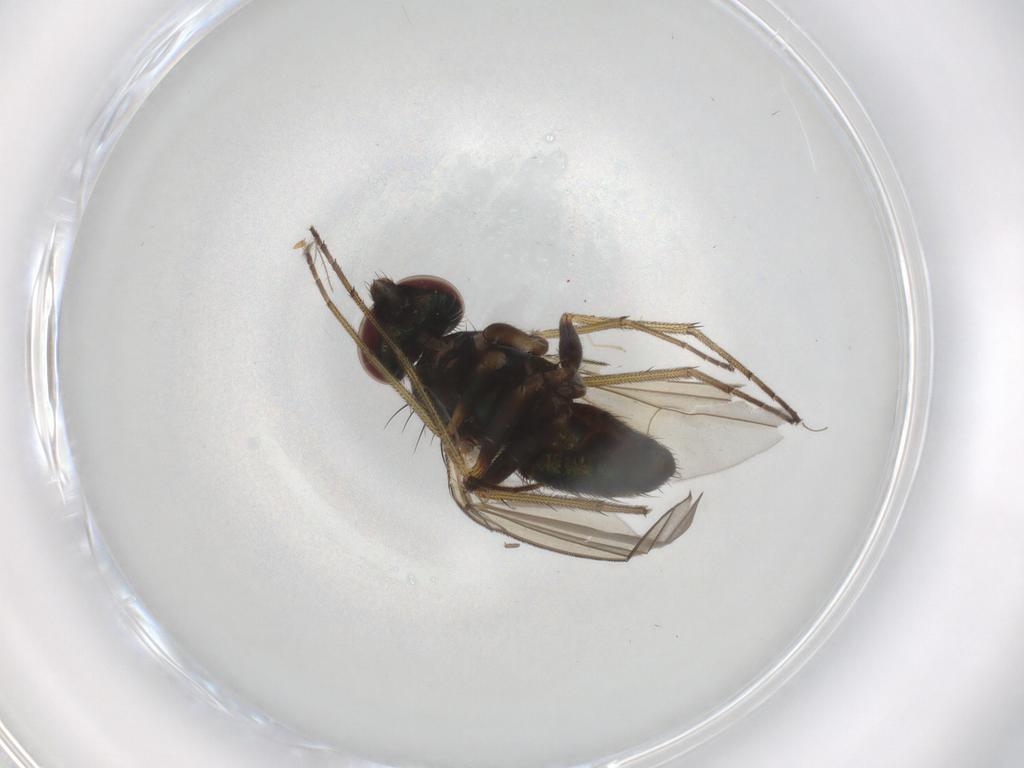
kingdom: Animalia
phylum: Arthropoda
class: Insecta
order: Diptera
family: Dolichopodidae
